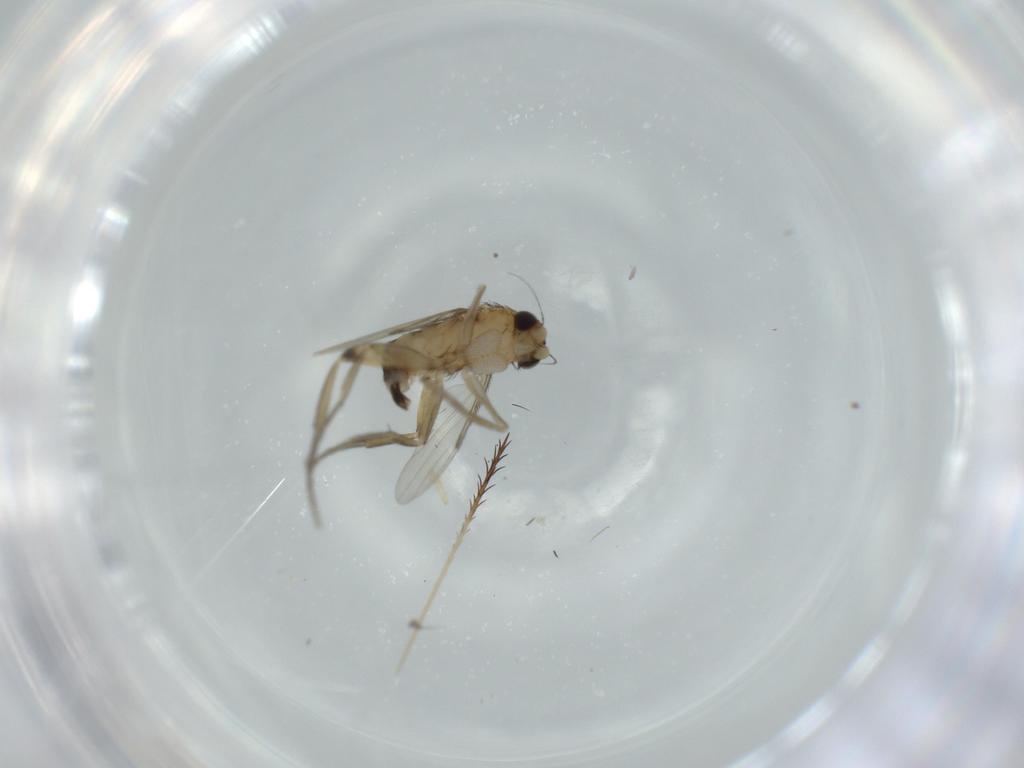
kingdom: Animalia
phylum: Arthropoda
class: Insecta
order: Diptera
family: Phoridae
